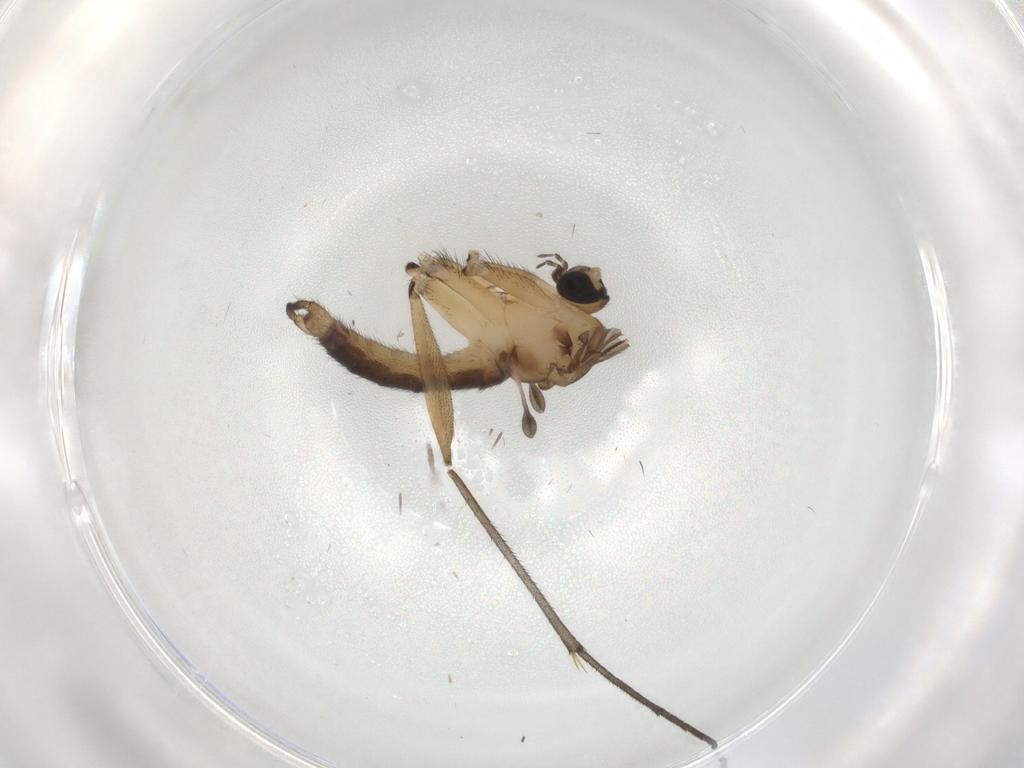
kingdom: Animalia
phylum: Arthropoda
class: Insecta
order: Diptera
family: Sciaridae
